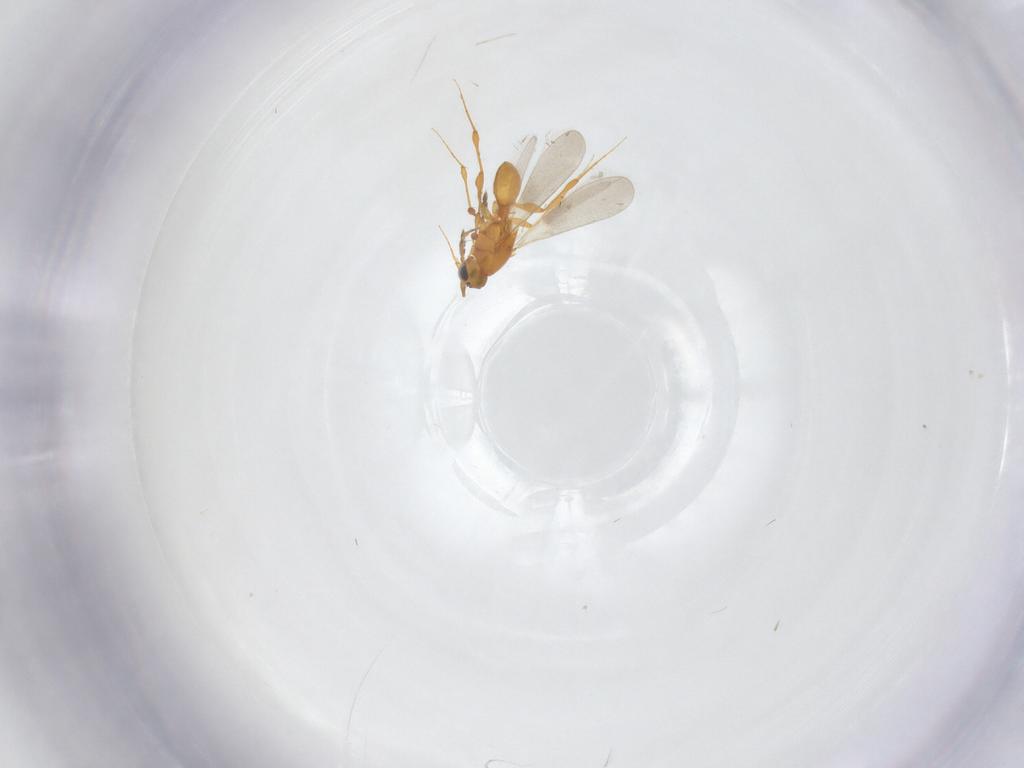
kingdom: Animalia
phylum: Arthropoda
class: Insecta
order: Hymenoptera
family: Platygastridae
